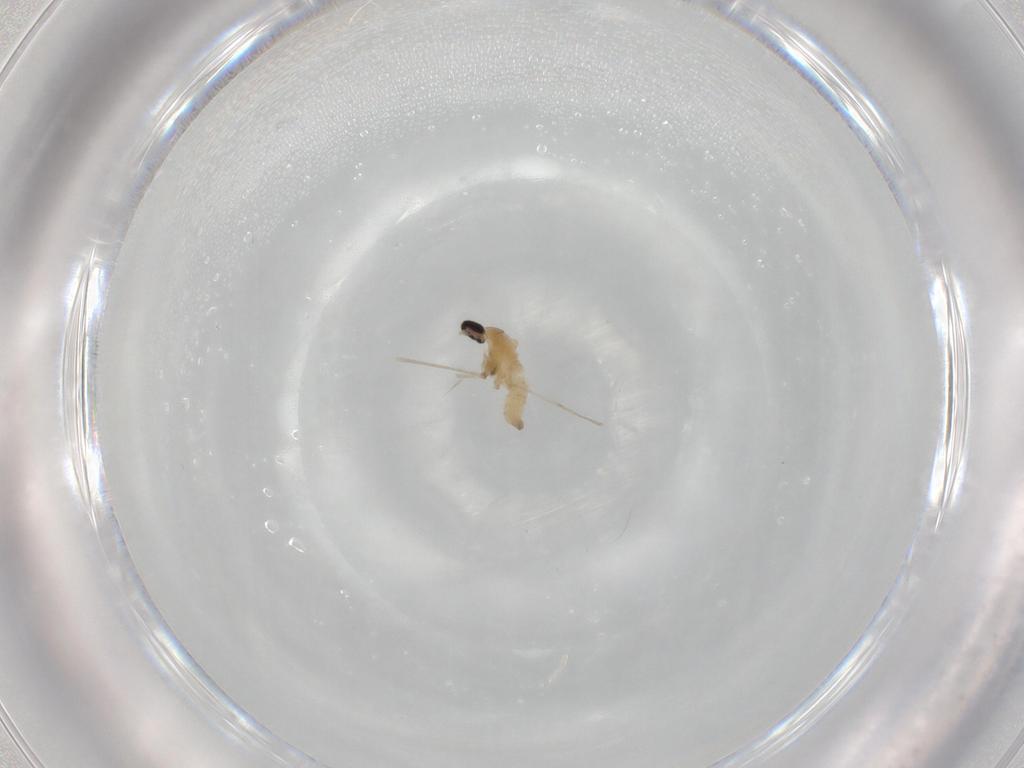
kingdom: Animalia
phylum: Arthropoda
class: Insecta
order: Diptera
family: Cecidomyiidae
